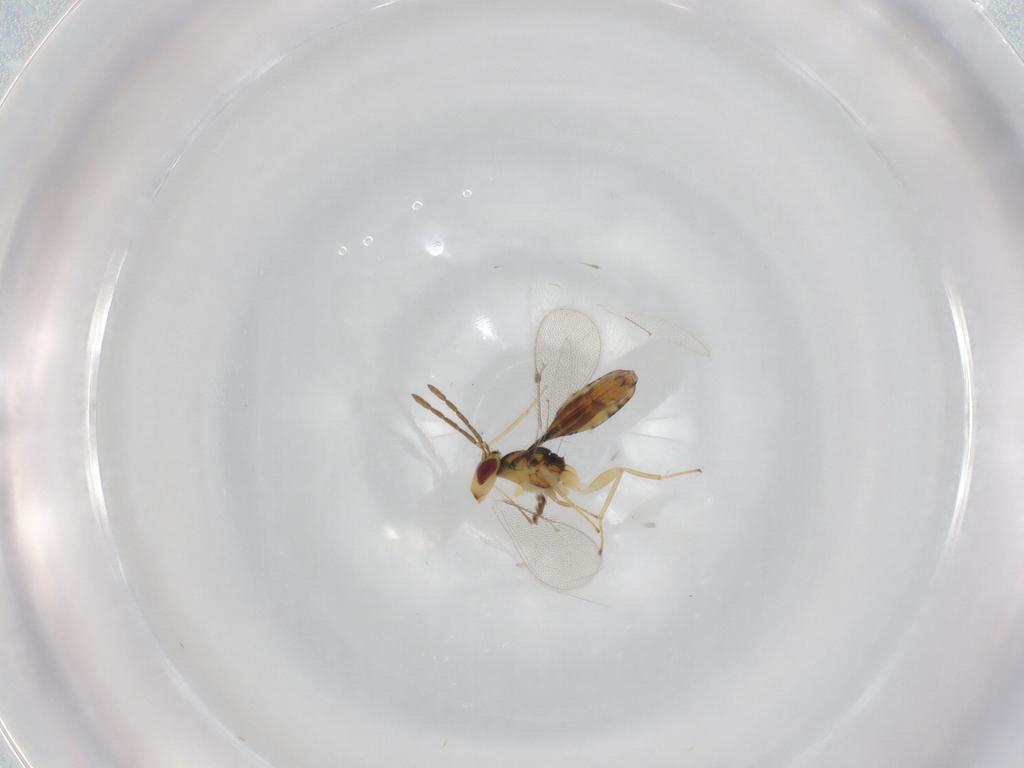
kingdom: Animalia
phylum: Arthropoda
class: Insecta
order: Hymenoptera
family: Eulophidae
